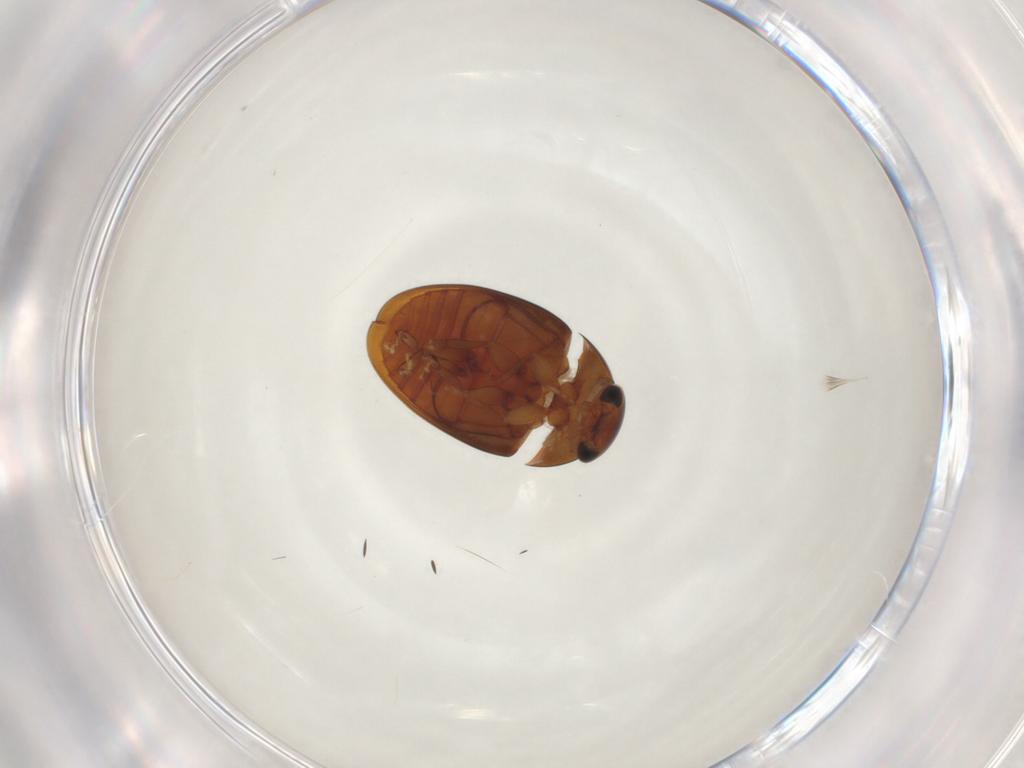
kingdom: Animalia
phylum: Arthropoda
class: Insecta
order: Coleoptera
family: Phalacridae
